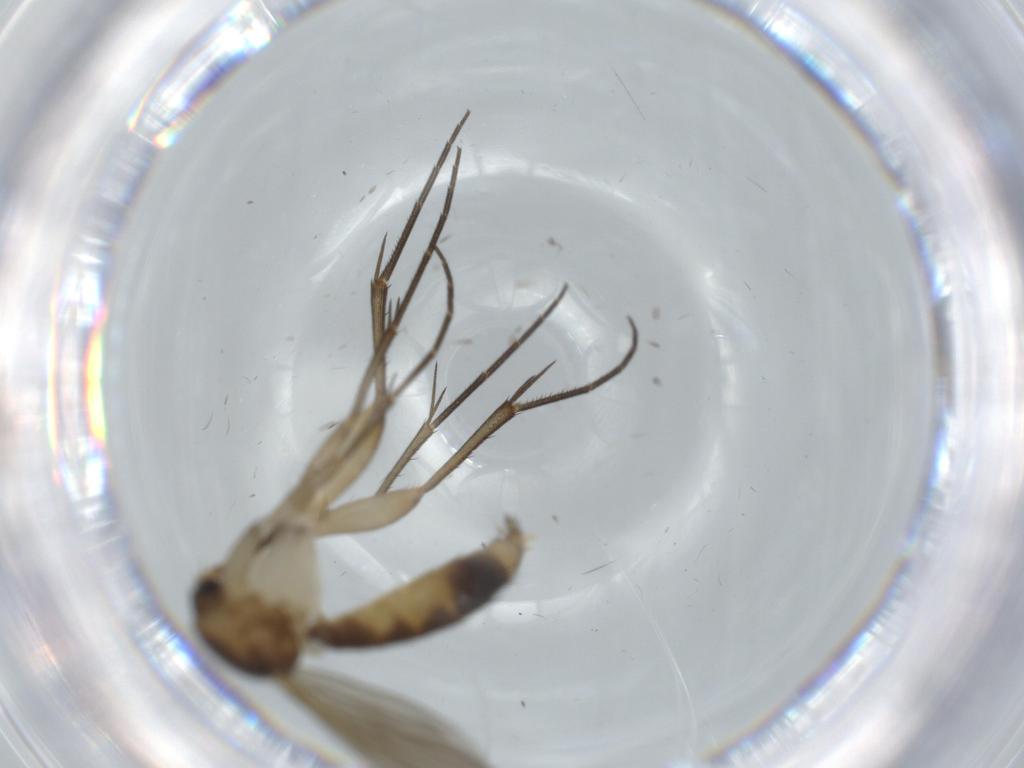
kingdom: Animalia
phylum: Arthropoda
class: Insecta
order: Diptera
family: Mycetophilidae
